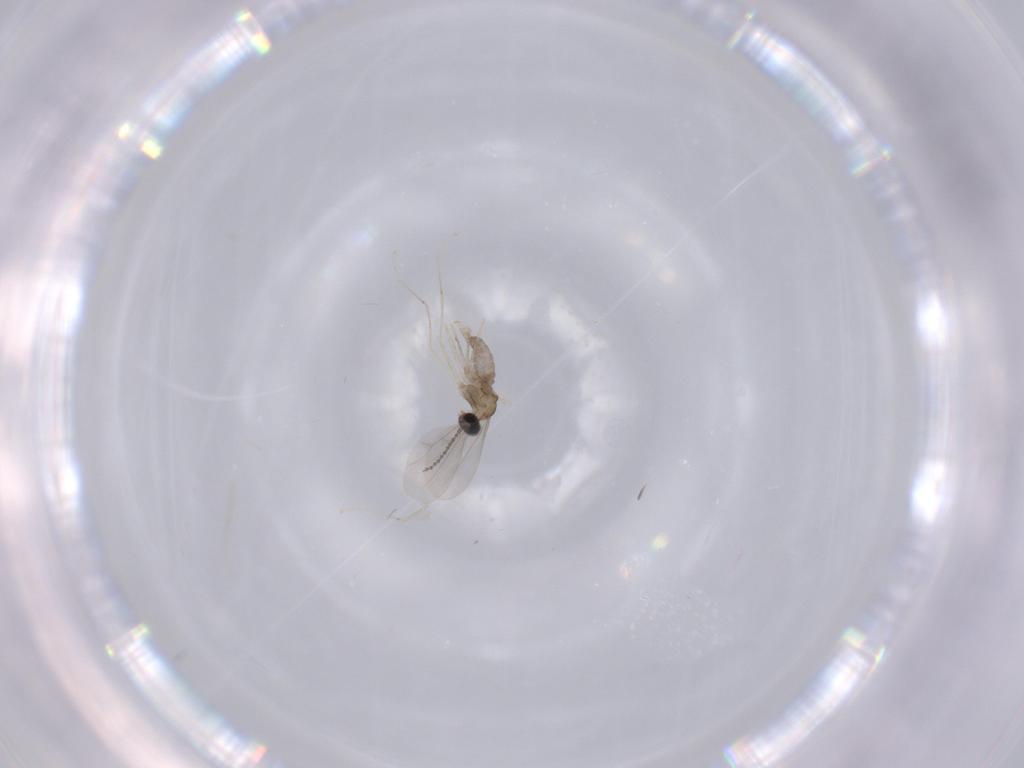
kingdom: Animalia
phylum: Arthropoda
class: Insecta
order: Diptera
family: Cecidomyiidae
